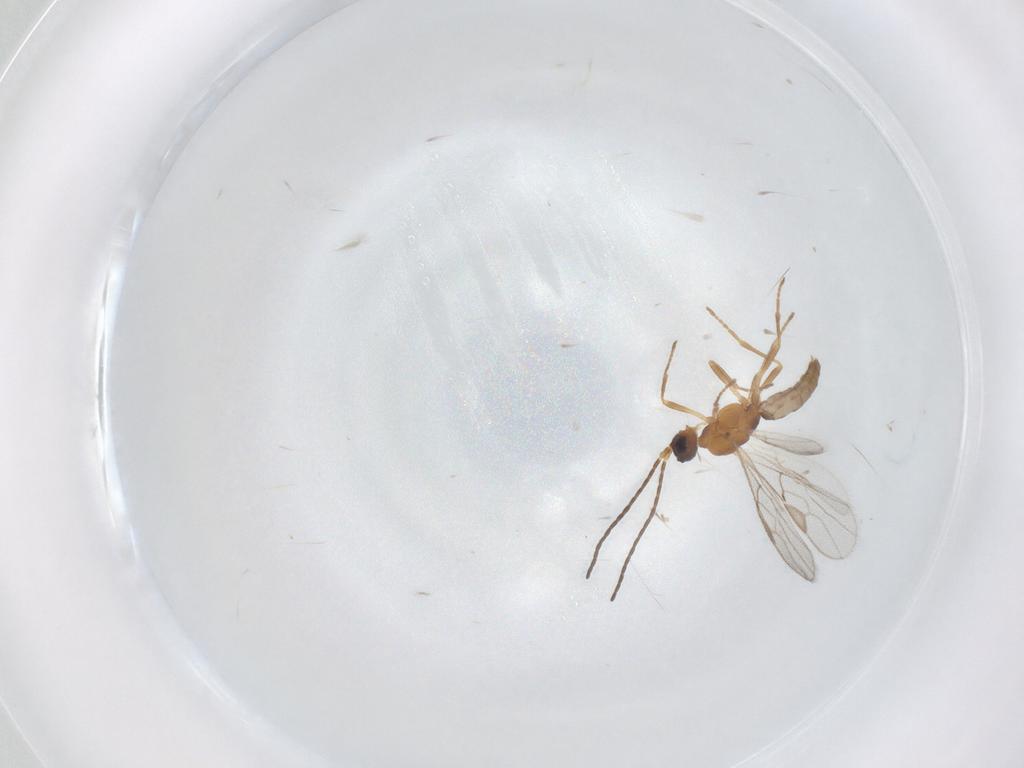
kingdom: Animalia
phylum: Arthropoda
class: Insecta
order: Hymenoptera
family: Braconidae
